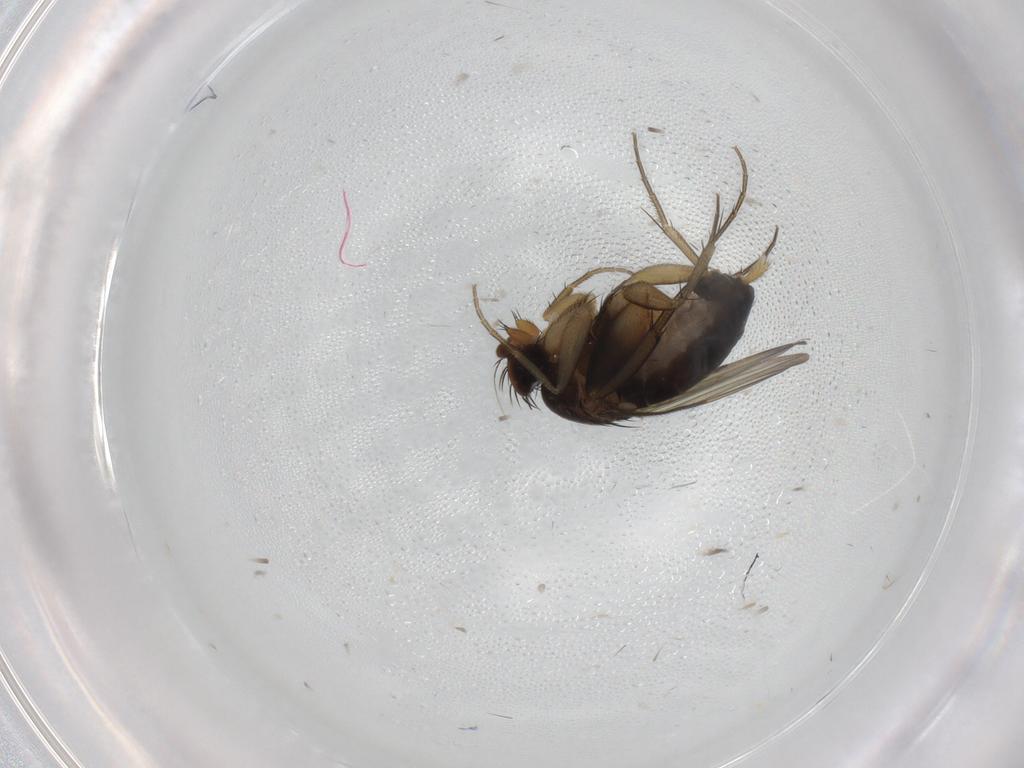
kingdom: Animalia
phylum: Arthropoda
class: Insecta
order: Diptera
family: Phoridae
